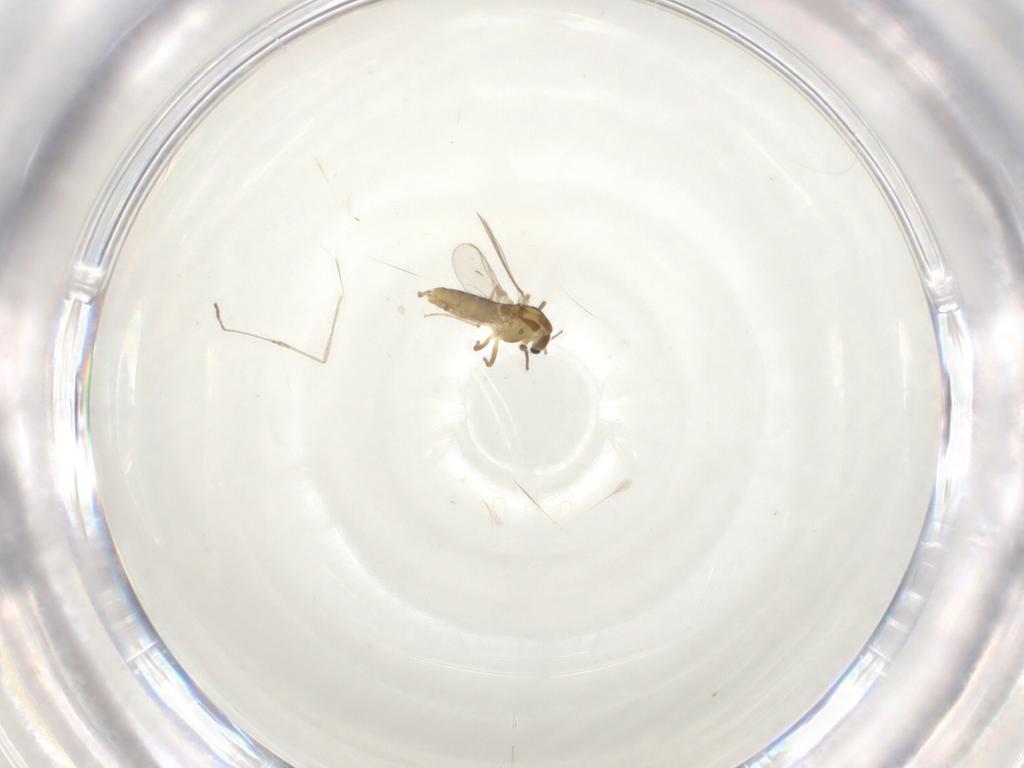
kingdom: Animalia
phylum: Arthropoda
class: Insecta
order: Diptera
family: Chironomidae
